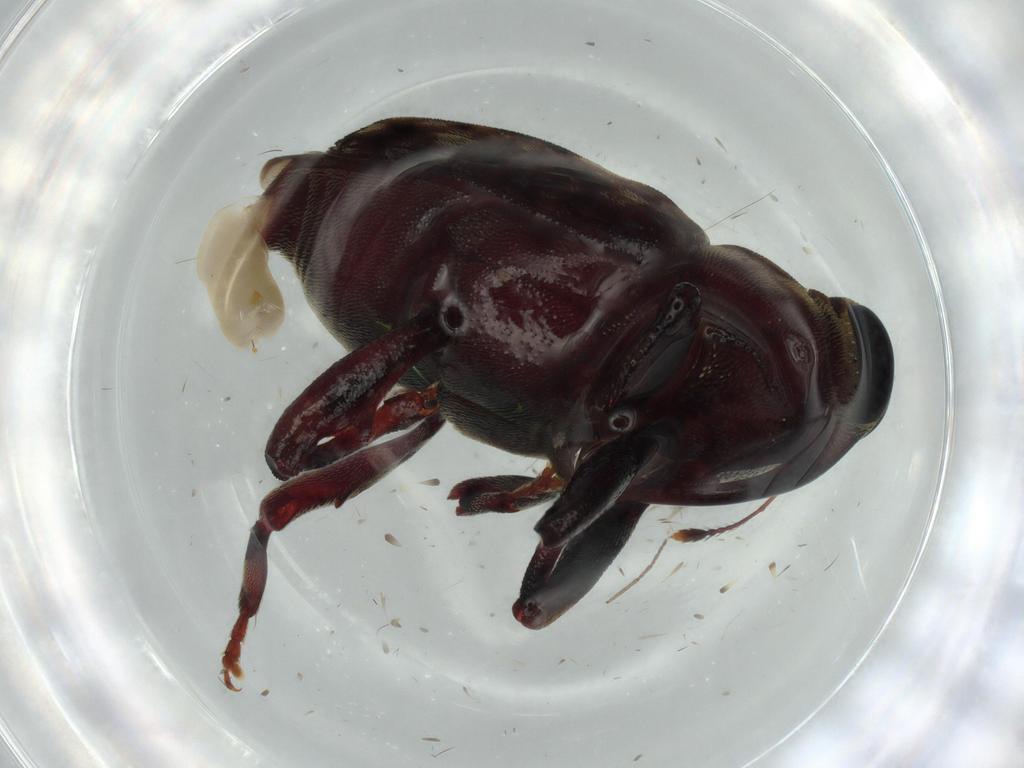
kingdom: Animalia
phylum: Arthropoda
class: Insecta
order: Coleoptera
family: Curculionidae
